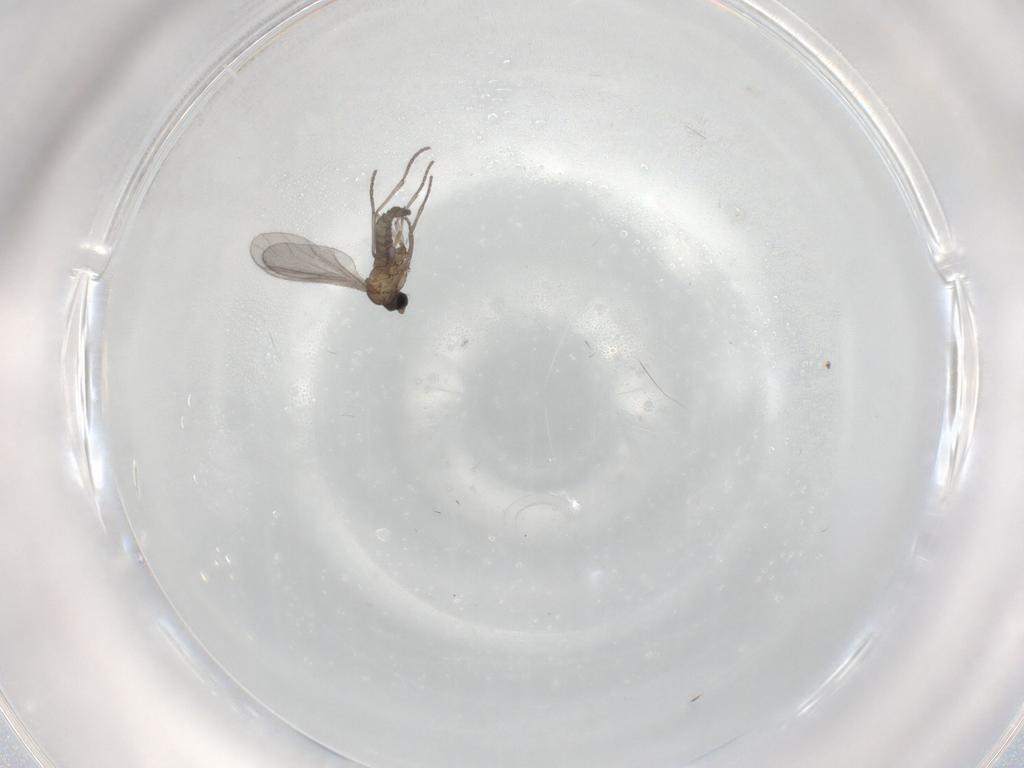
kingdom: Animalia
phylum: Arthropoda
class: Insecta
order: Diptera
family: Sciaridae
